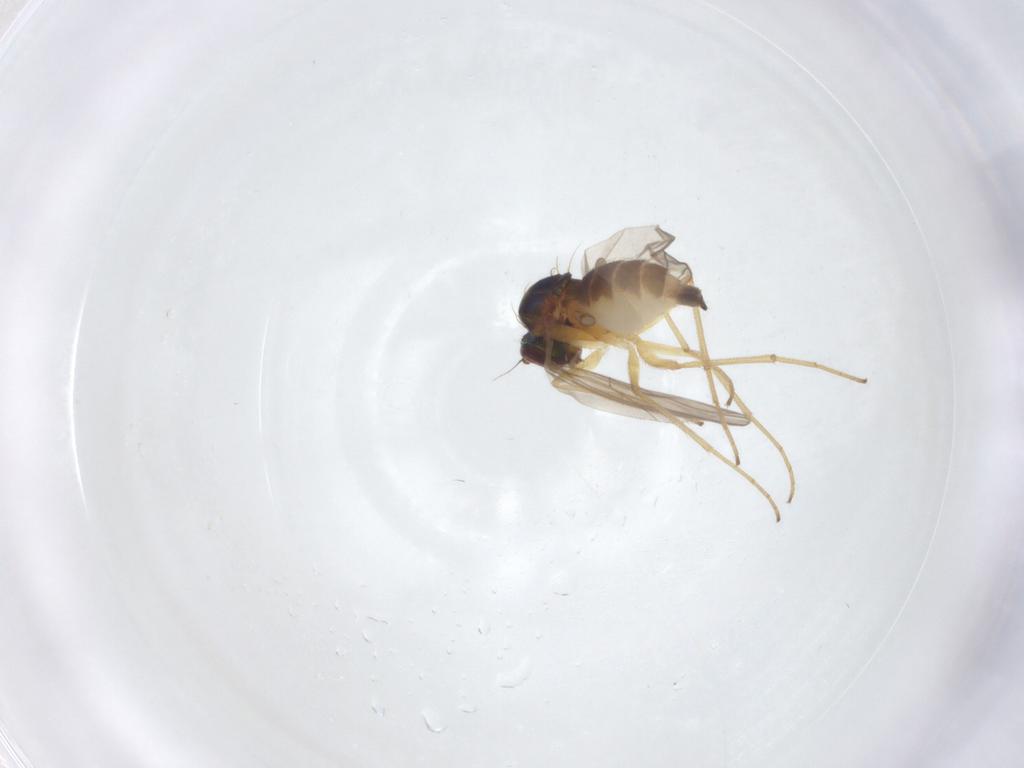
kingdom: Animalia
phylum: Arthropoda
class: Insecta
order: Diptera
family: Dolichopodidae
